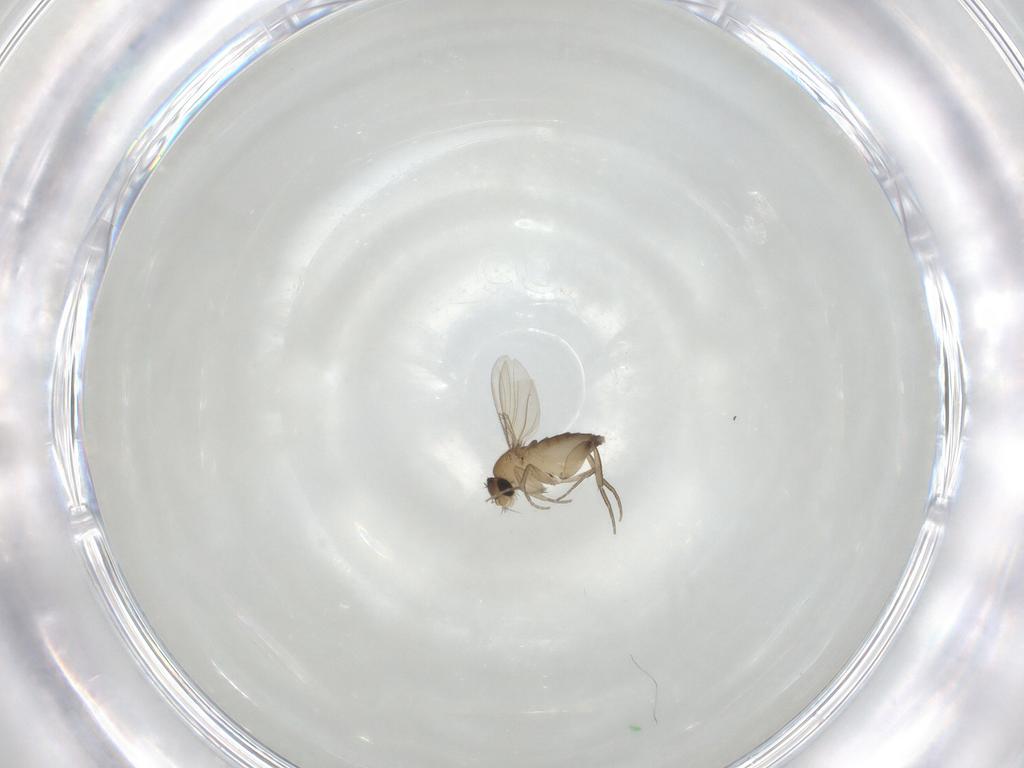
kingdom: Animalia
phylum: Arthropoda
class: Insecta
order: Diptera
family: Phoridae
